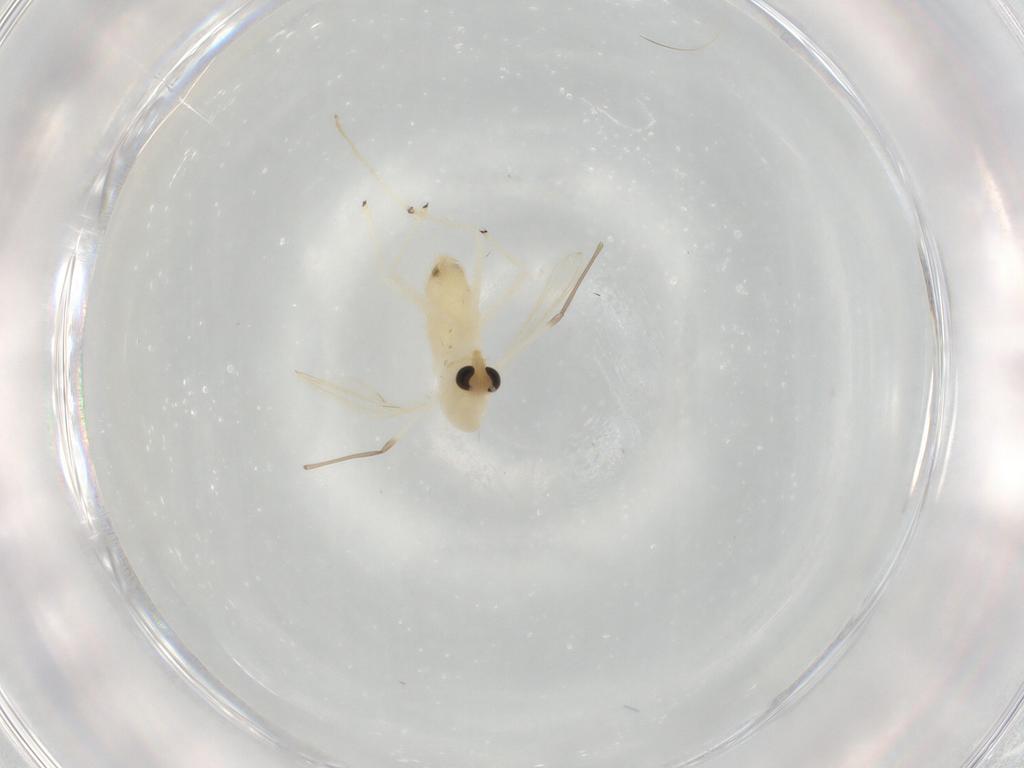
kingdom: Animalia
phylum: Arthropoda
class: Insecta
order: Diptera
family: Chironomidae
